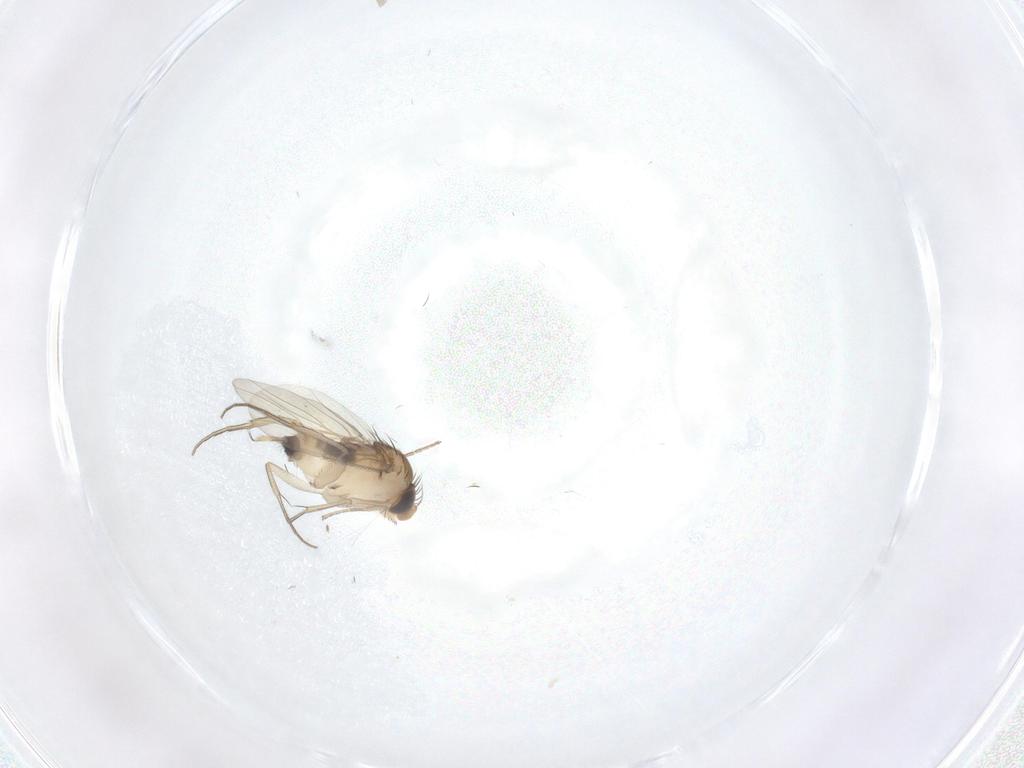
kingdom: Animalia
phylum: Arthropoda
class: Insecta
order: Diptera
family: Phoridae
